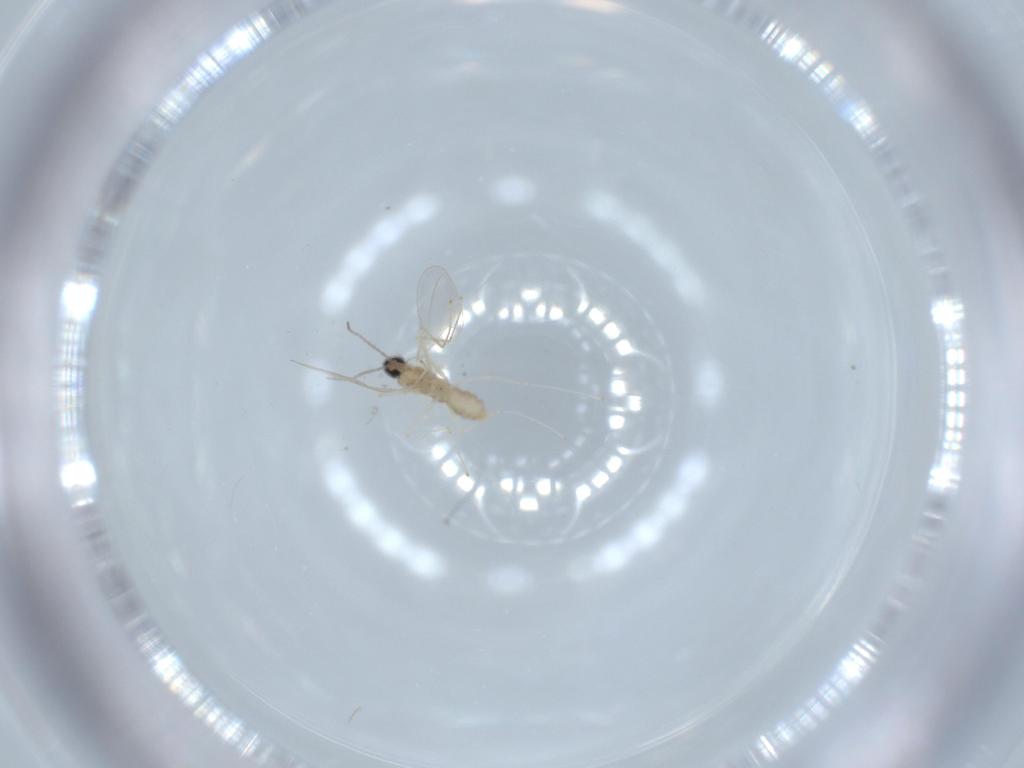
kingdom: Animalia
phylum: Arthropoda
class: Insecta
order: Diptera
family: Cecidomyiidae
